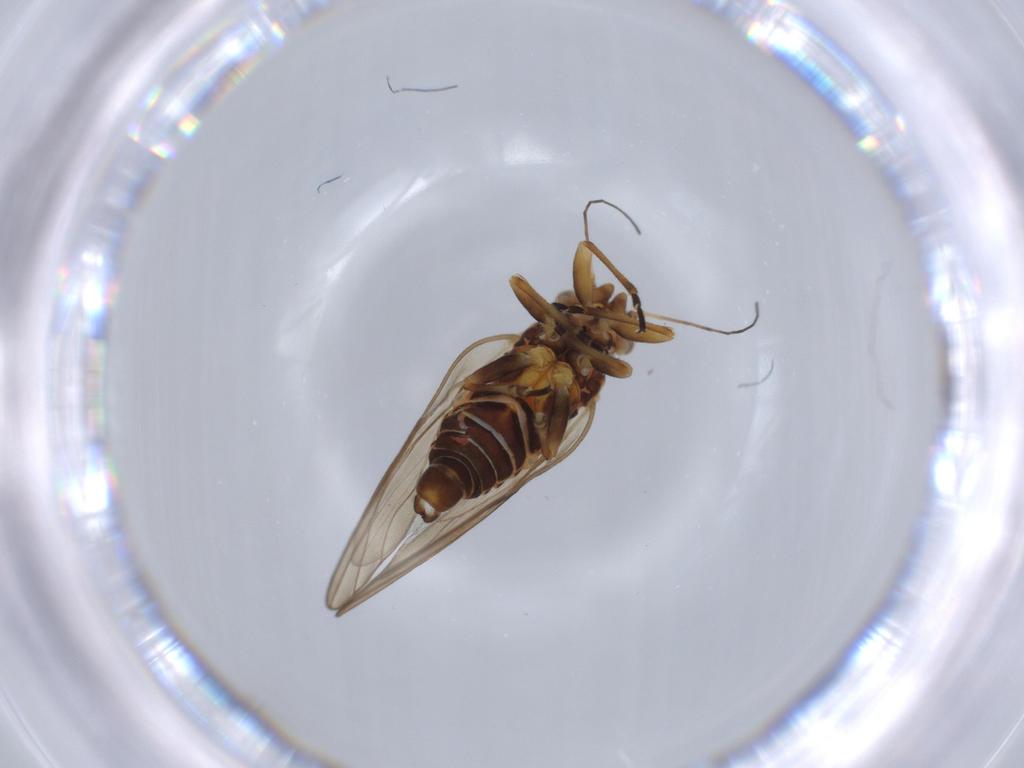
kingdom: Animalia
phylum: Arthropoda
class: Insecta
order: Hemiptera
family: Psyllidae
